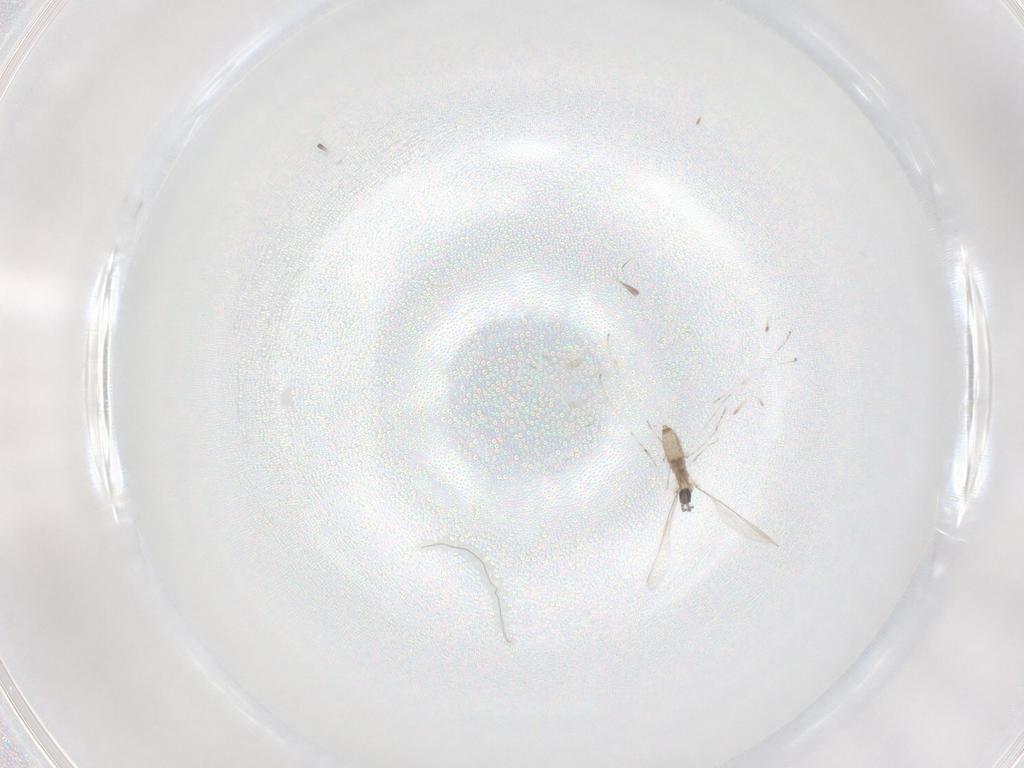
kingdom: Animalia
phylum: Arthropoda
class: Insecta
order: Diptera
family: Cecidomyiidae
